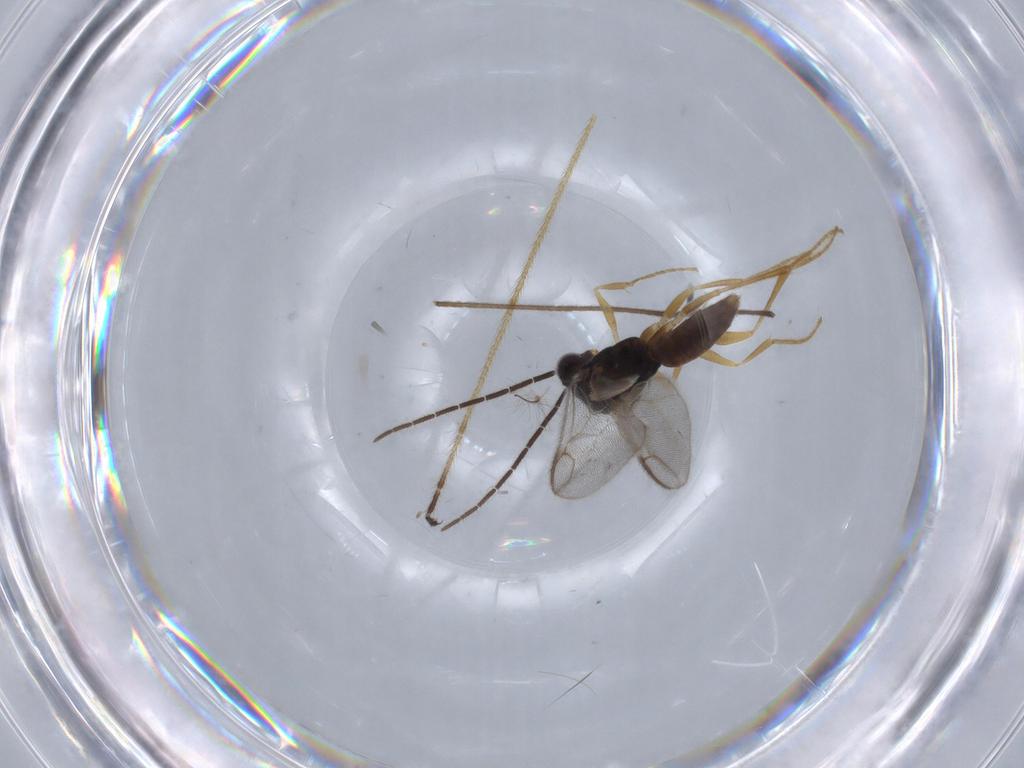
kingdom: Animalia
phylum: Arthropoda
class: Insecta
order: Hymenoptera
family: Dryinidae
